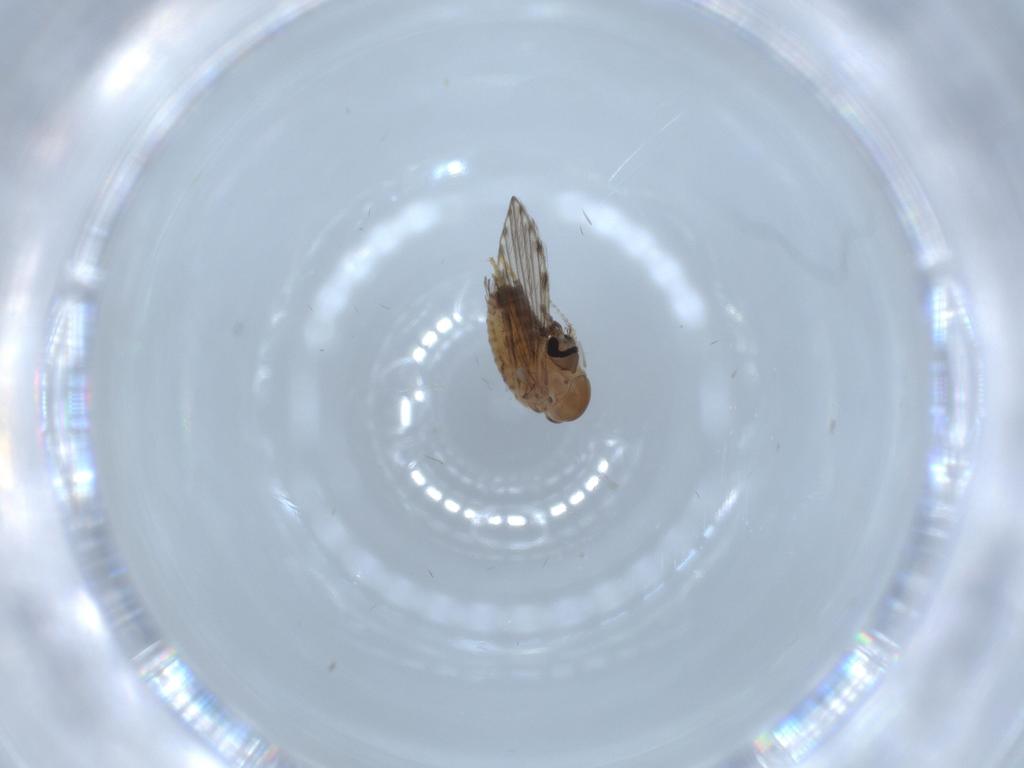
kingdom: Animalia
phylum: Arthropoda
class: Insecta
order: Diptera
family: Psychodidae
